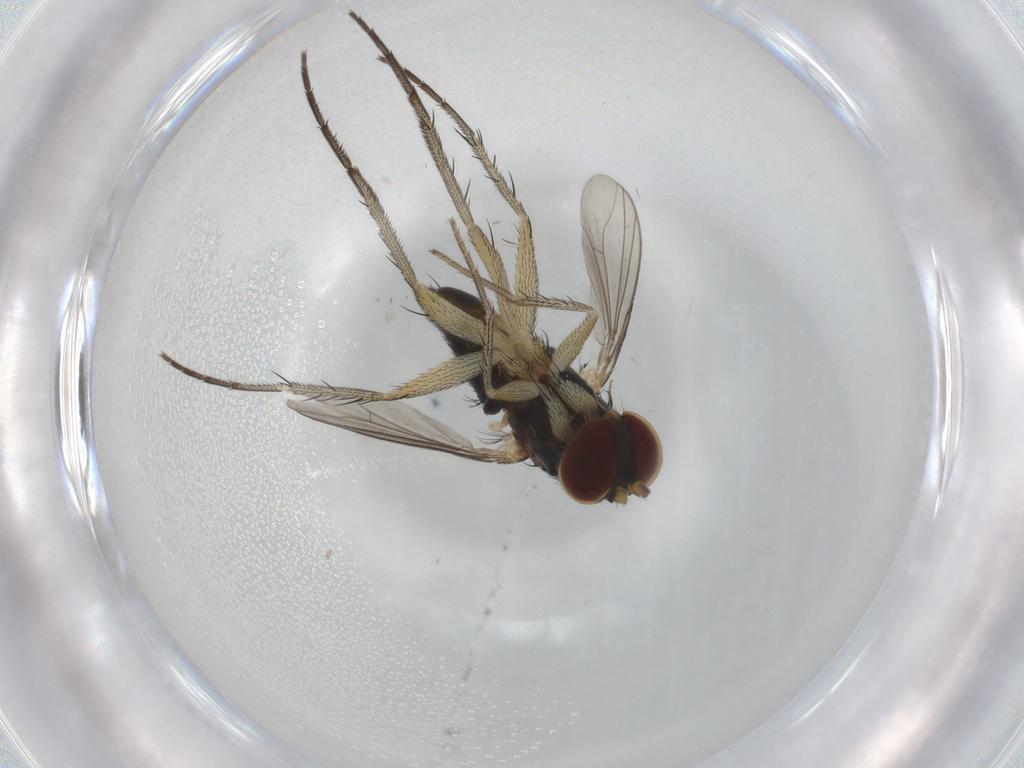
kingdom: Animalia
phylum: Arthropoda
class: Insecta
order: Diptera
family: Dolichopodidae
